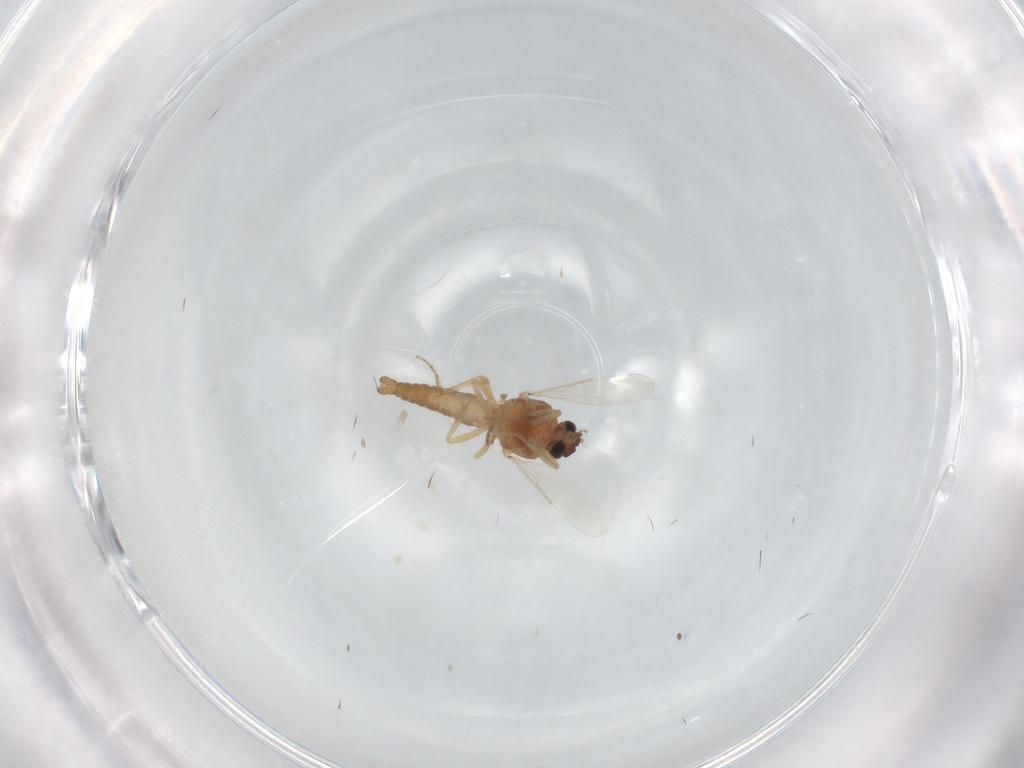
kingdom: Animalia
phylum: Arthropoda
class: Insecta
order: Diptera
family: Ceratopogonidae
